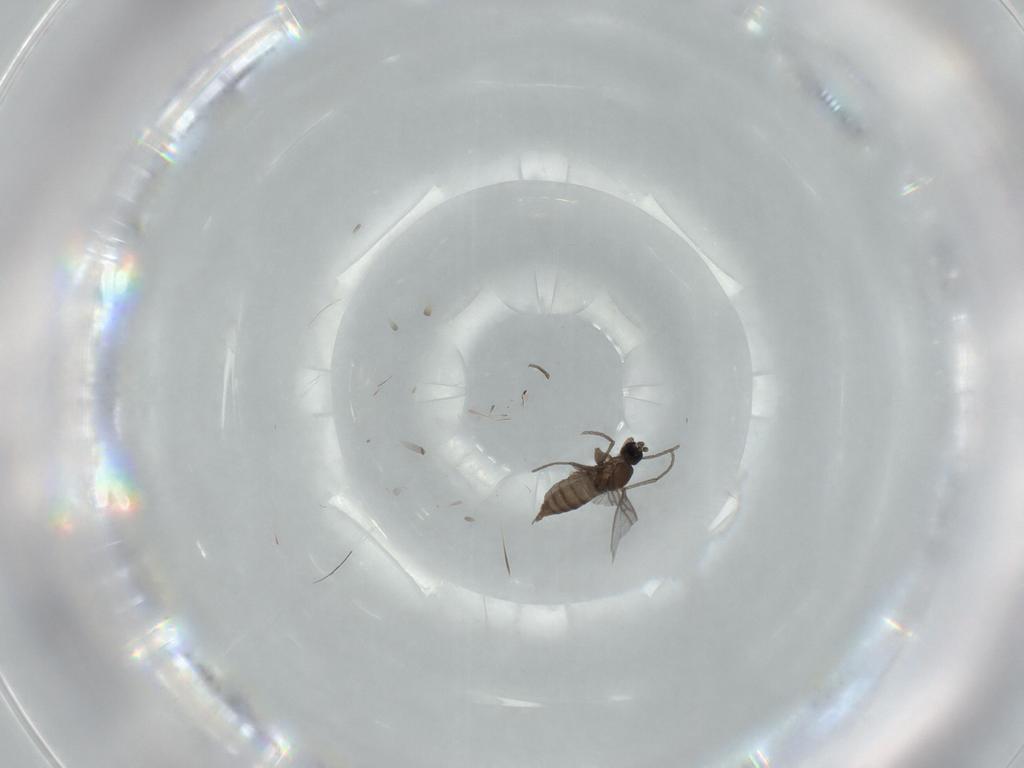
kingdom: Animalia
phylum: Arthropoda
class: Insecta
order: Diptera
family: Sciaridae
